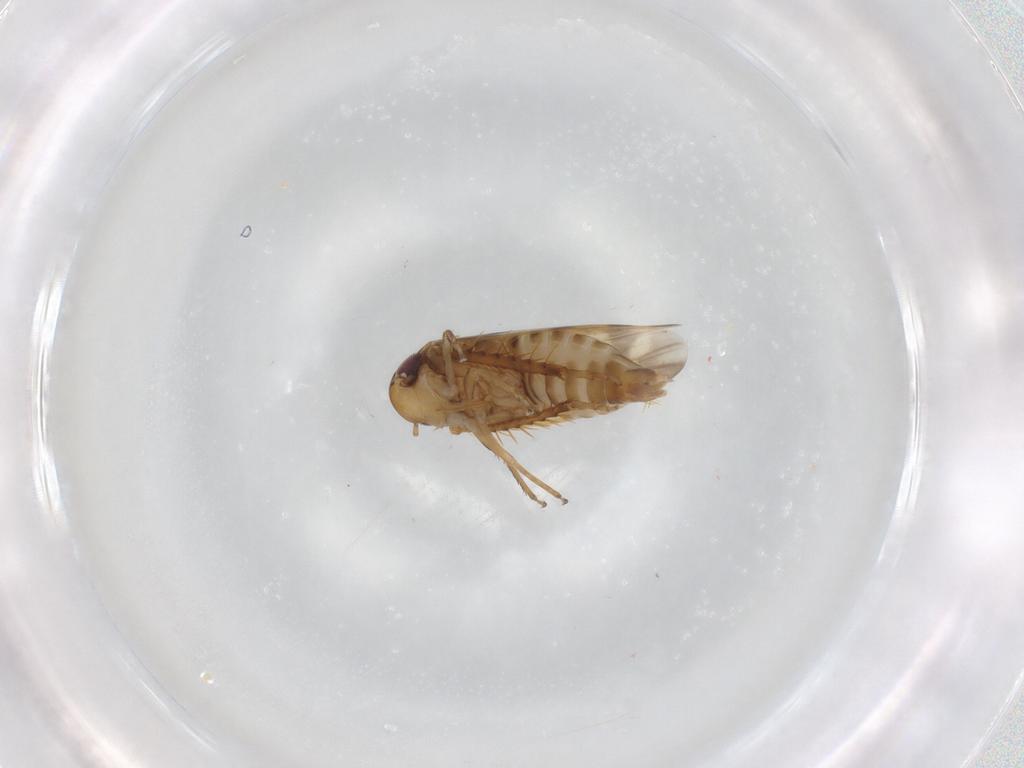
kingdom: Animalia
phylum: Arthropoda
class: Insecta
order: Hemiptera
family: Cicadellidae
